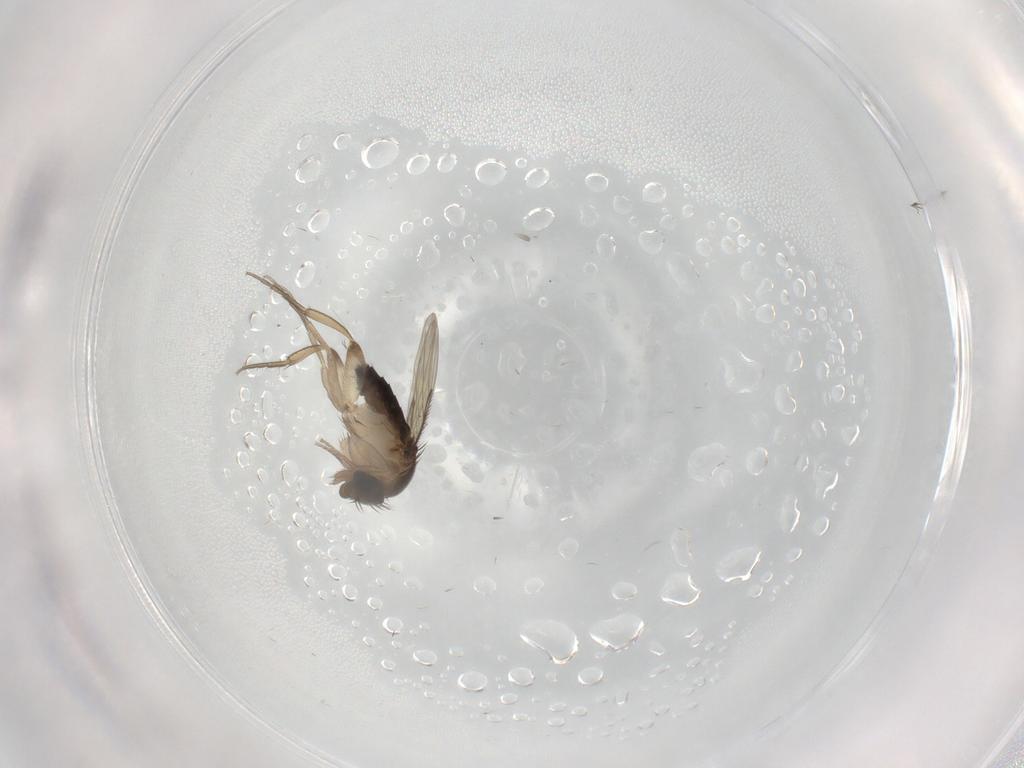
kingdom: Animalia
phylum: Arthropoda
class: Insecta
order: Diptera
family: Phoridae
